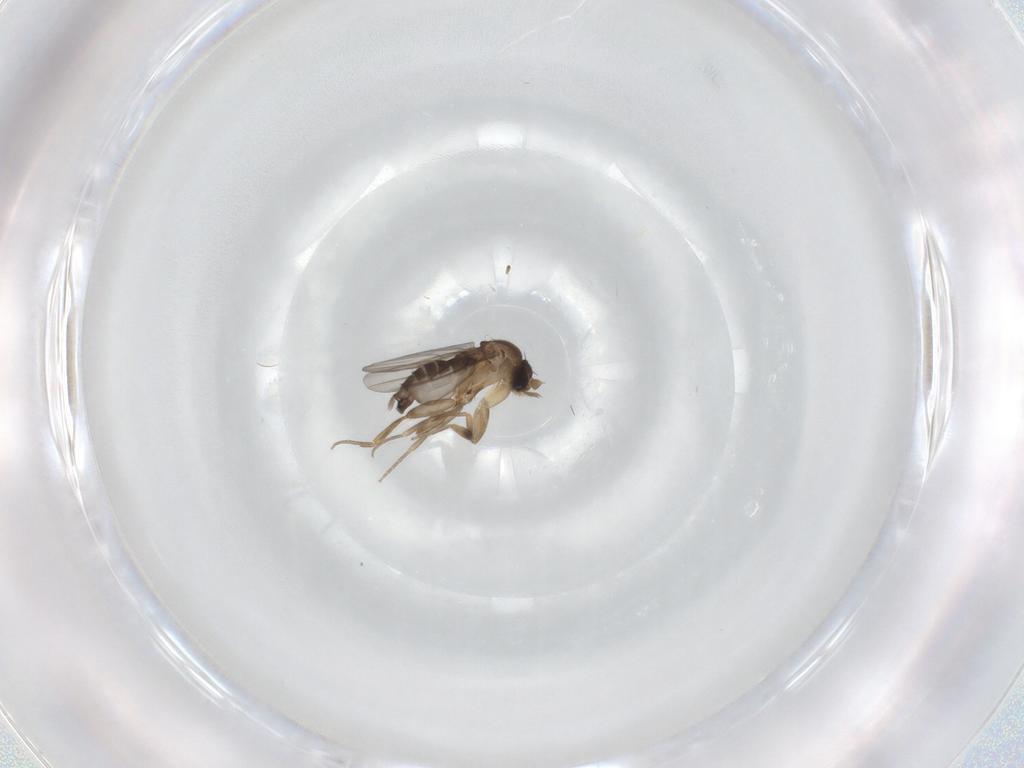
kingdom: Animalia
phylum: Arthropoda
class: Insecta
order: Diptera
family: Phoridae
